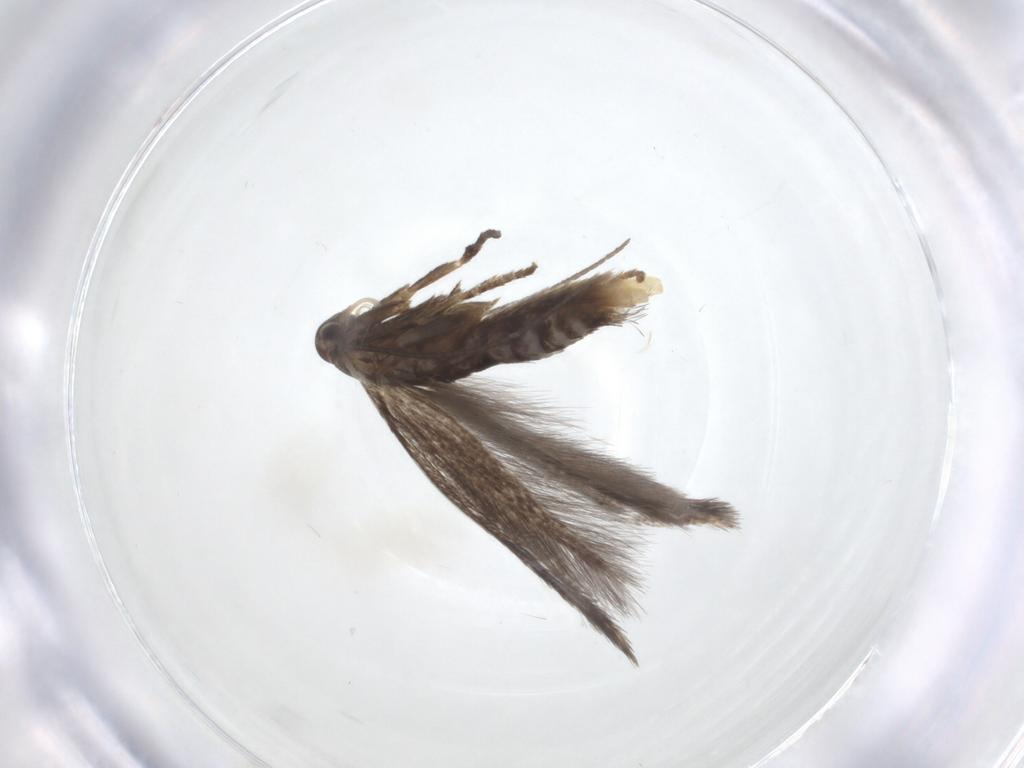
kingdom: Animalia
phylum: Arthropoda
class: Insecta
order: Lepidoptera
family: Elachistidae
